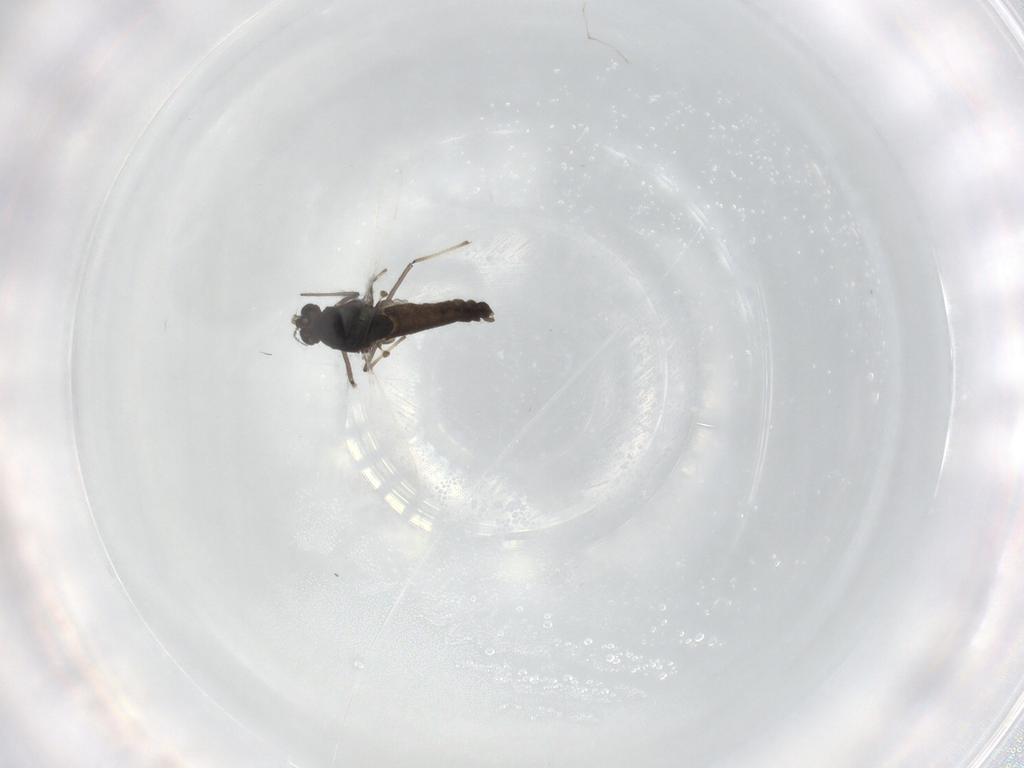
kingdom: Animalia
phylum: Arthropoda
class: Insecta
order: Diptera
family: Chironomidae
